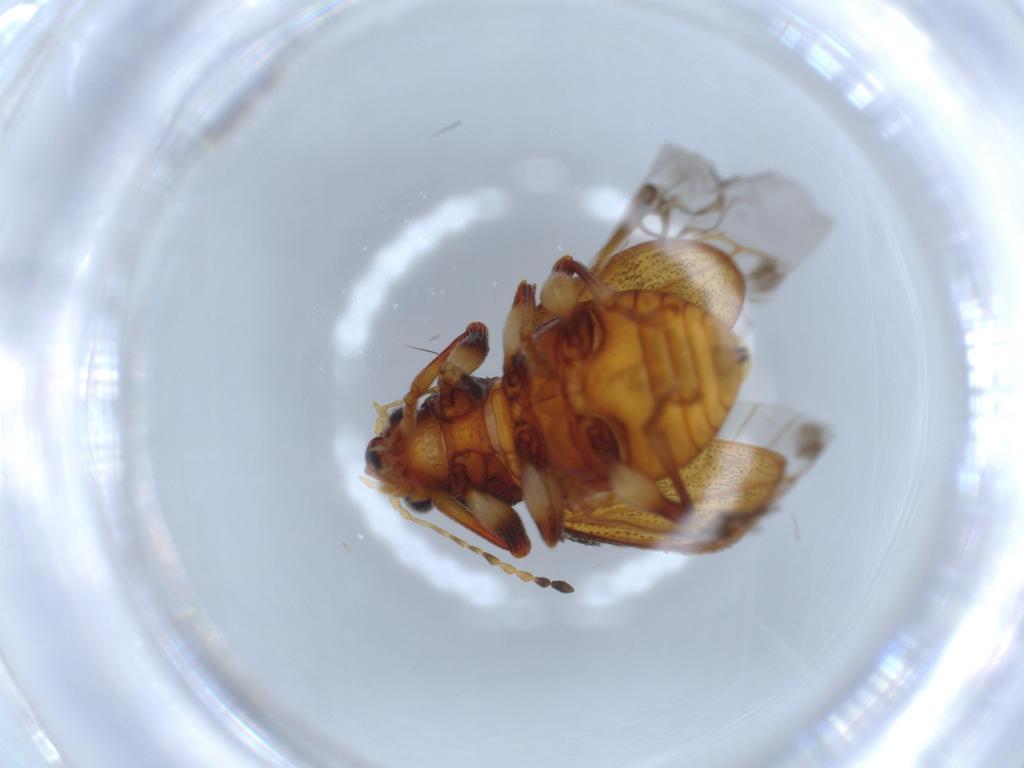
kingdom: Animalia
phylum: Arthropoda
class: Insecta
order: Coleoptera
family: Chrysomelidae
